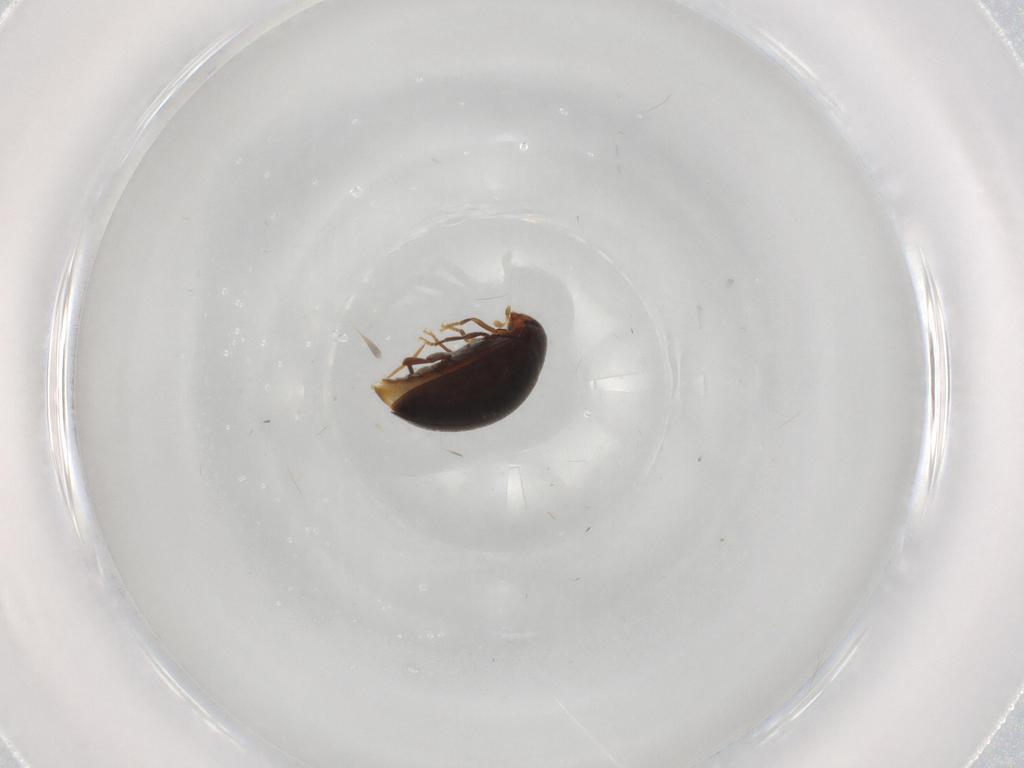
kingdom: Animalia
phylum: Arthropoda
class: Insecta
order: Coleoptera
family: Melandryidae
